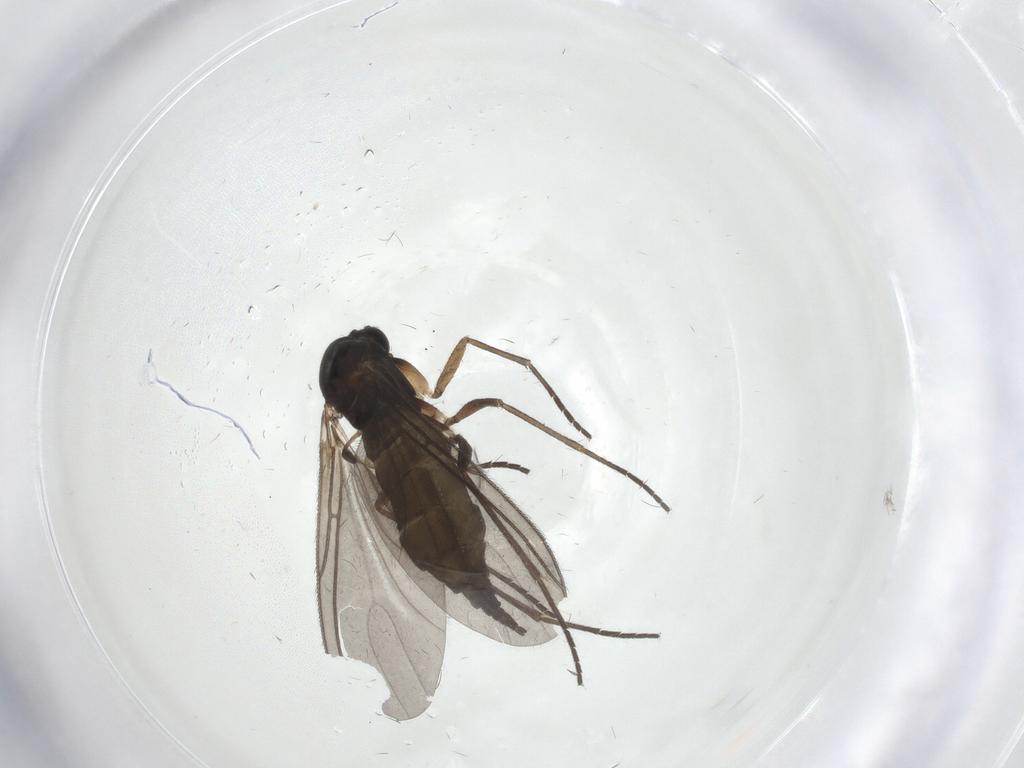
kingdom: Animalia
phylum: Arthropoda
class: Insecta
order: Diptera
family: Sciaridae
